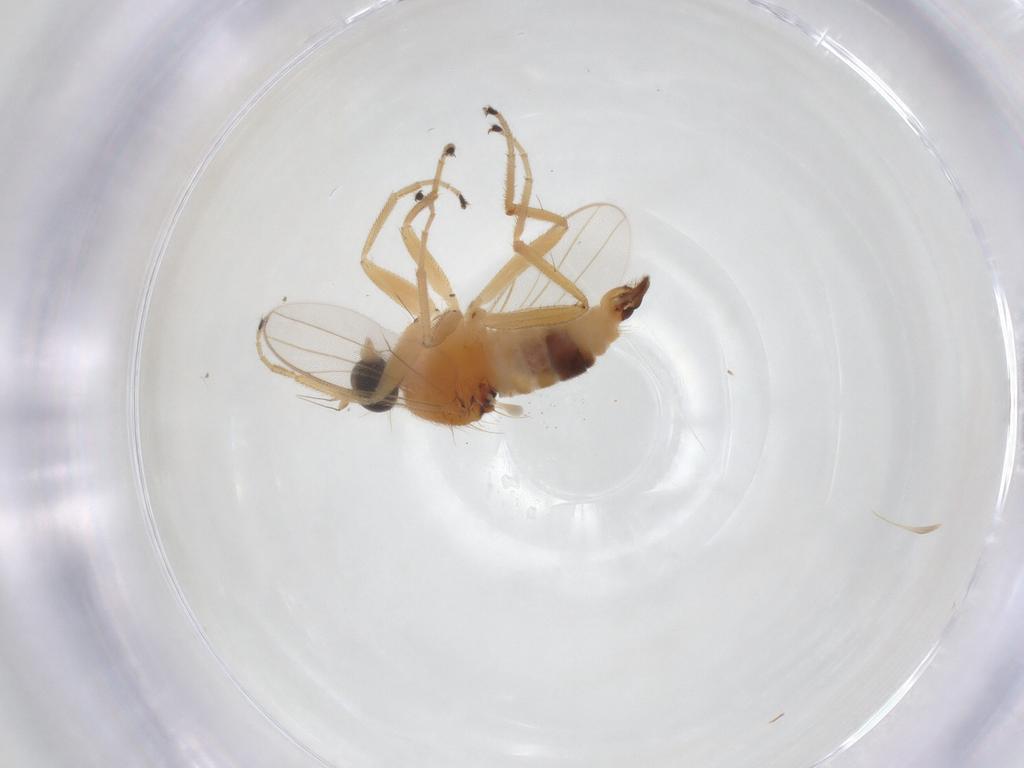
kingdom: Animalia
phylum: Arthropoda
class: Insecta
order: Diptera
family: Hybotidae
